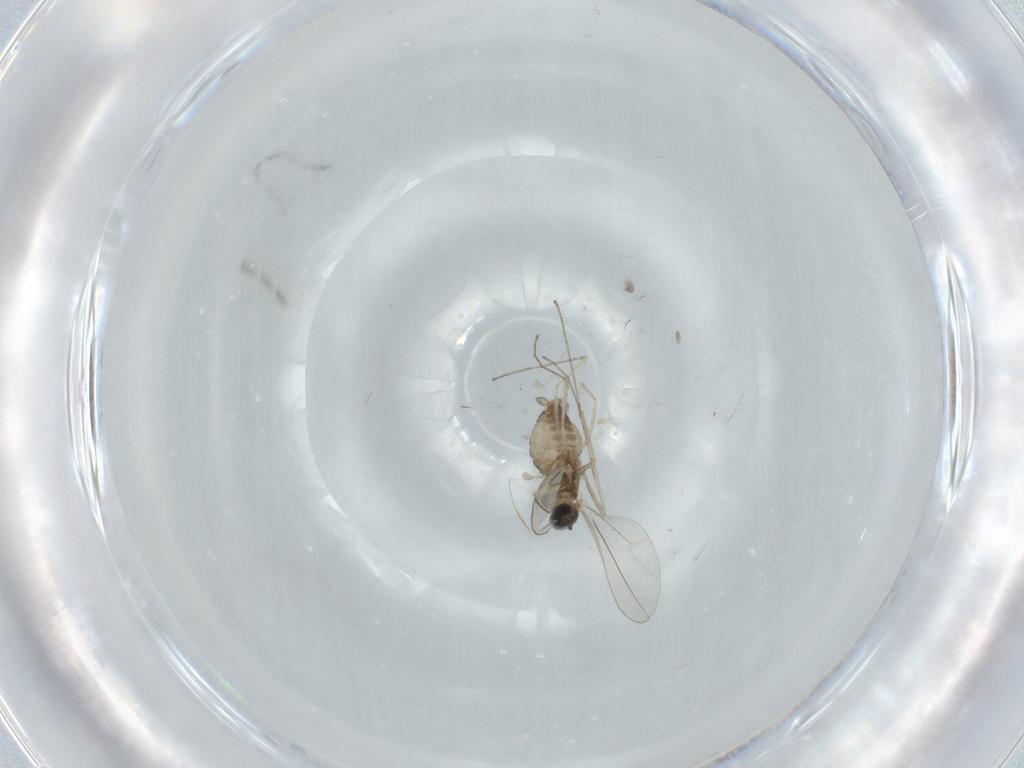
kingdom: Animalia
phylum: Arthropoda
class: Insecta
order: Diptera
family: Cecidomyiidae
